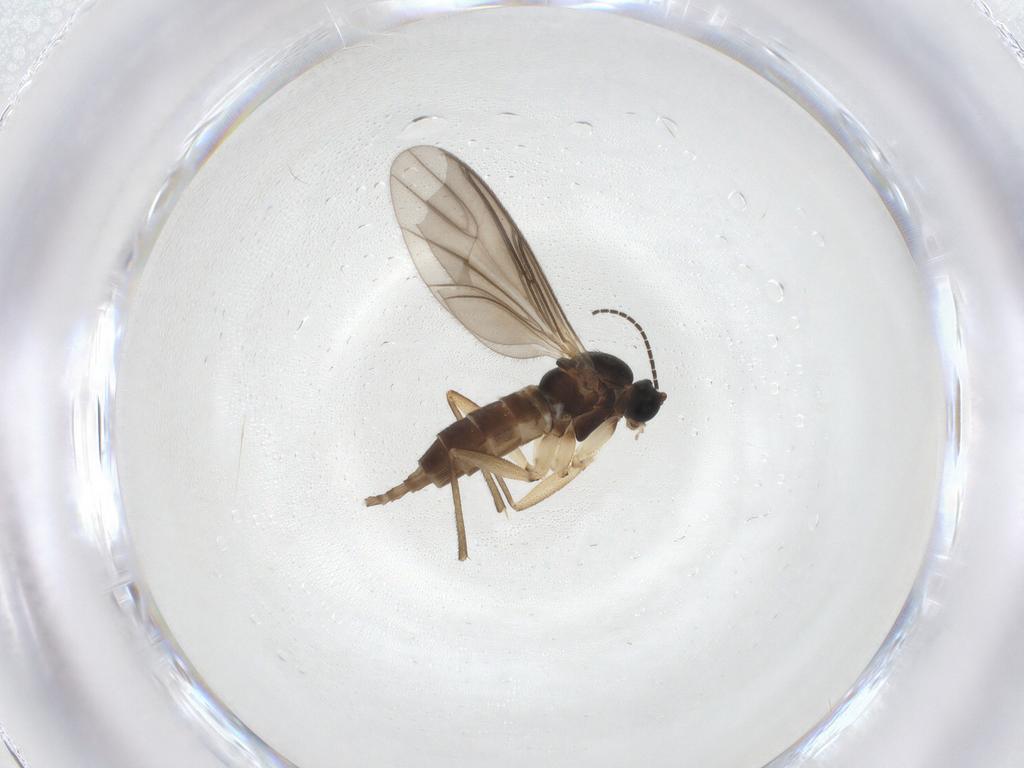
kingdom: Animalia
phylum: Arthropoda
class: Insecta
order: Diptera
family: Sciaridae
